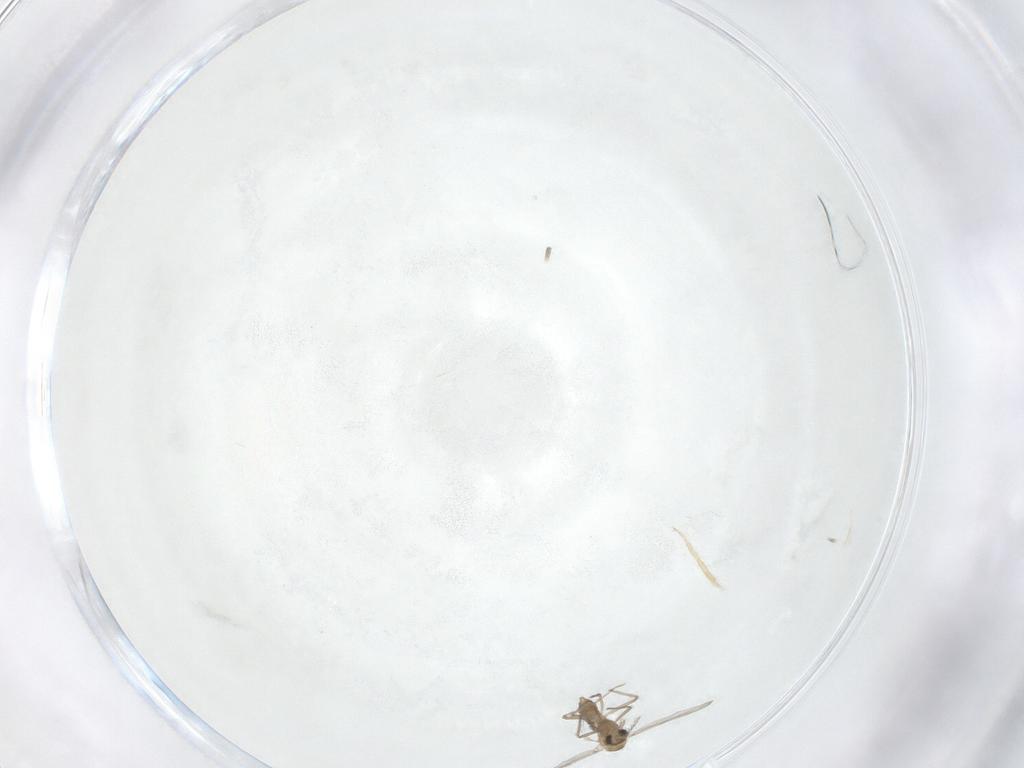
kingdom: Animalia
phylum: Arthropoda
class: Insecta
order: Diptera
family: Chironomidae
